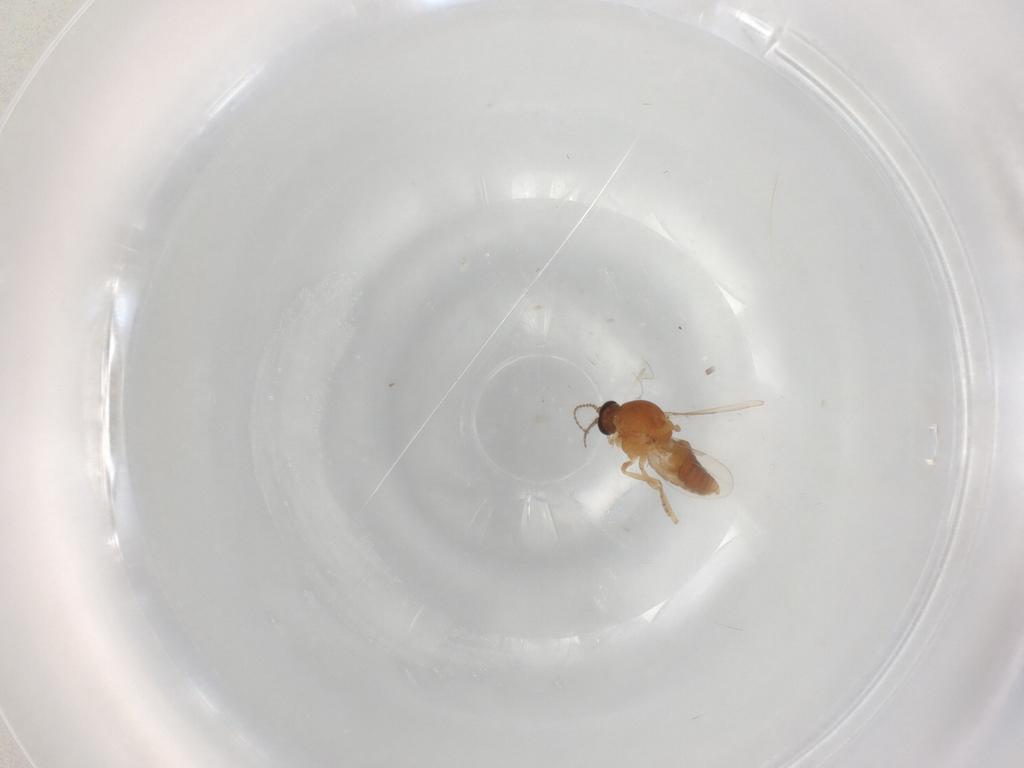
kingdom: Animalia
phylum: Arthropoda
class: Insecta
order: Diptera
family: Ceratopogonidae
